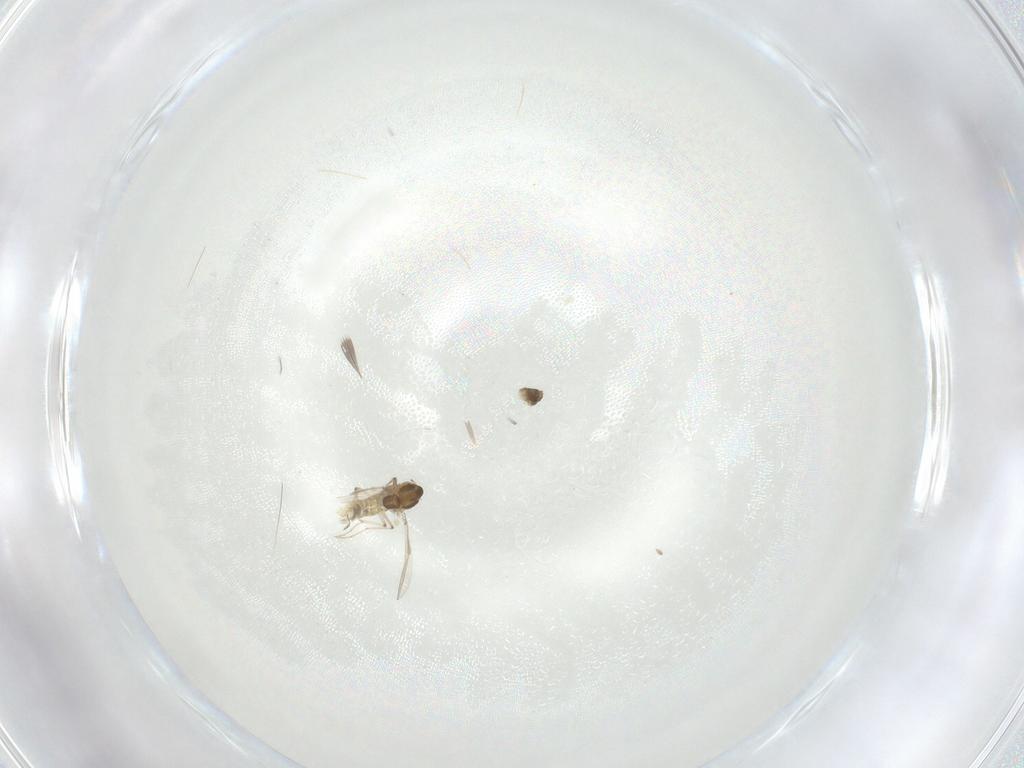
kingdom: Animalia
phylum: Arthropoda
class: Insecta
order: Diptera
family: Chironomidae
